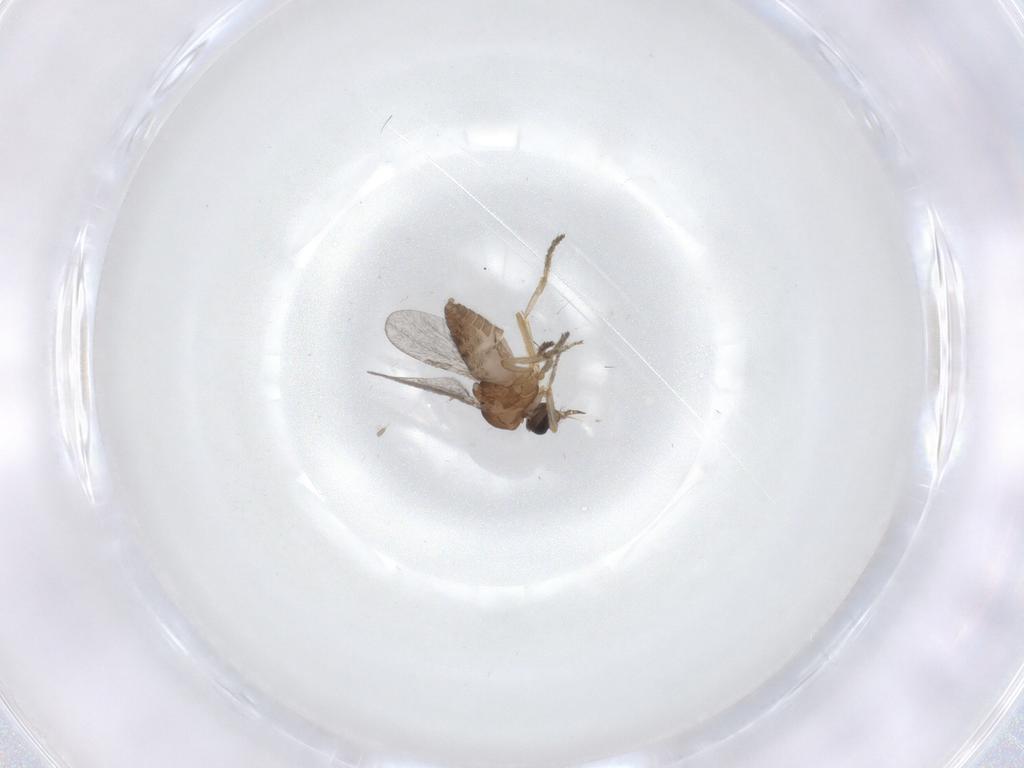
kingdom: Animalia
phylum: Arthropoda
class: Insecta
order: Diptera
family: Ceratopogonidae
